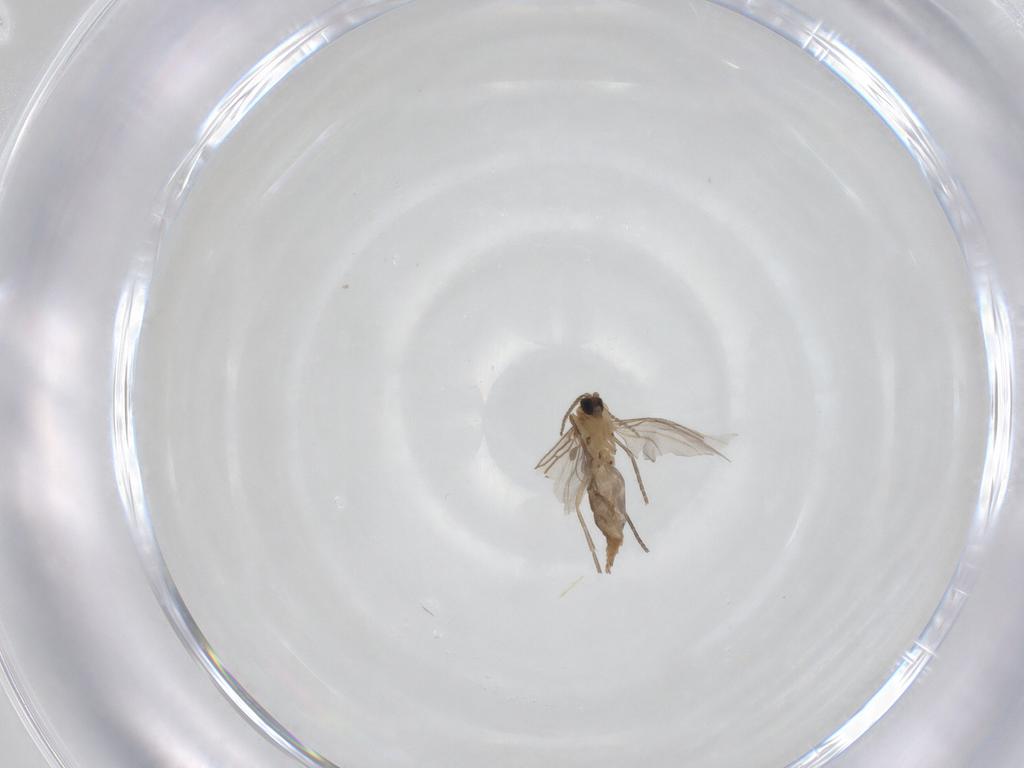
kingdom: Animalia
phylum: Arthropoda
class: Insecta
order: Diptera
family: Sciaridae
